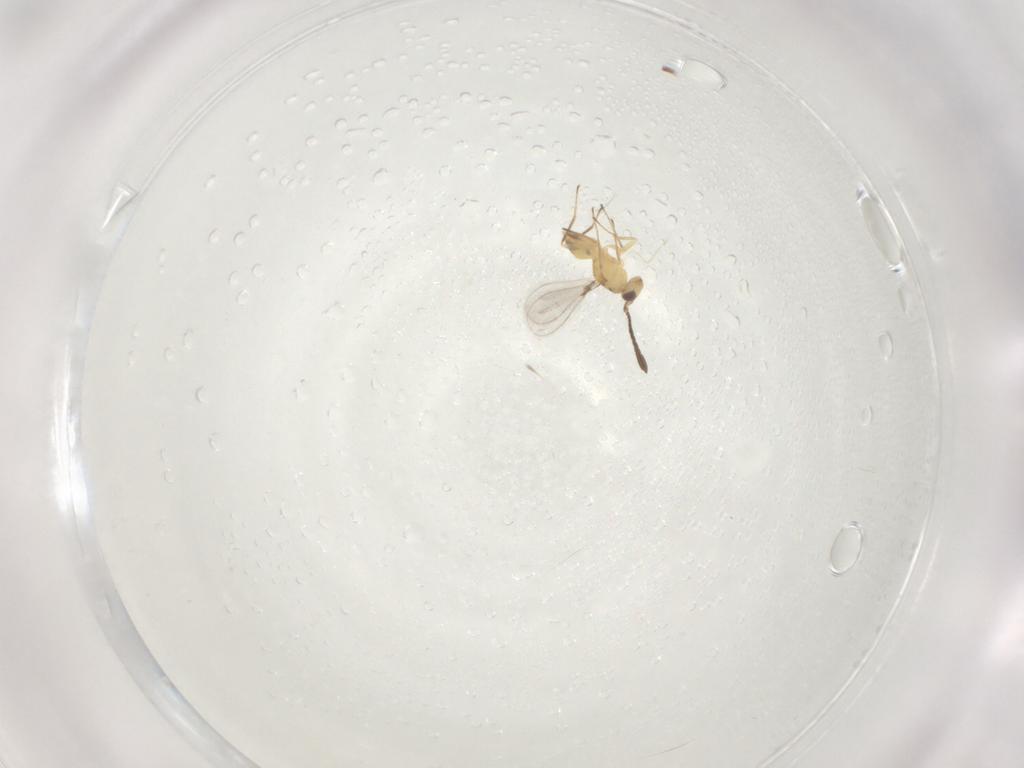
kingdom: Animalia
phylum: Arthropoda
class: Insecta
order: Hymenoptera
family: Mymaridae
